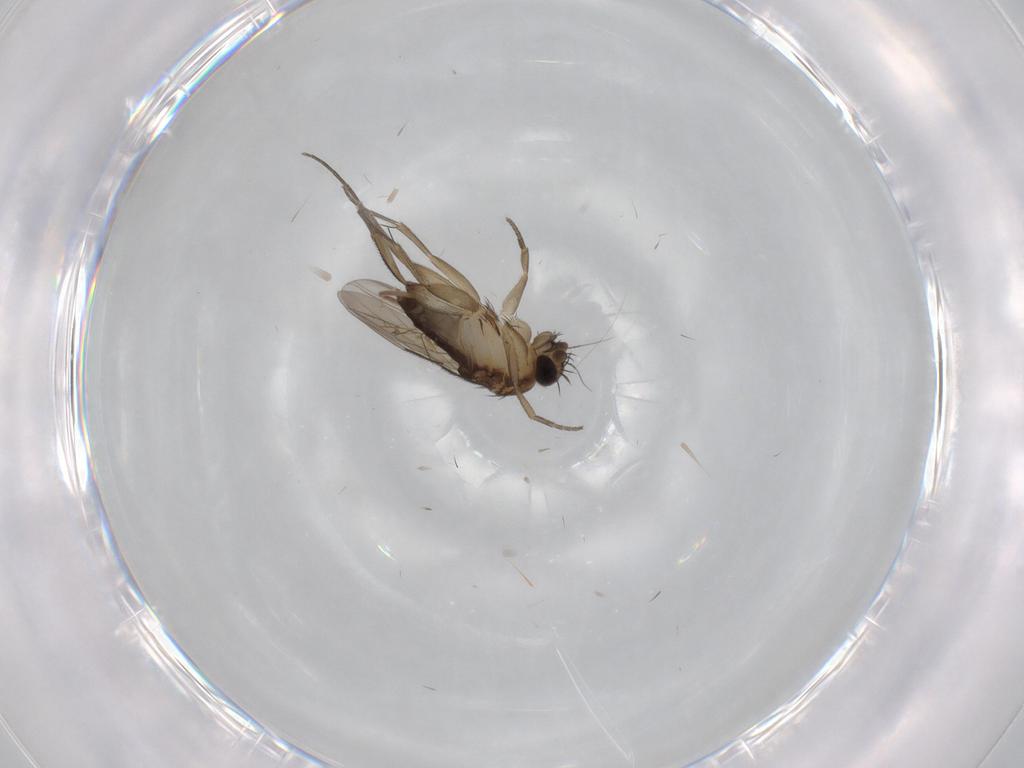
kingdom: Animalia
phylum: Arthropoda
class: Insecta
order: Diptera
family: Phoridae
